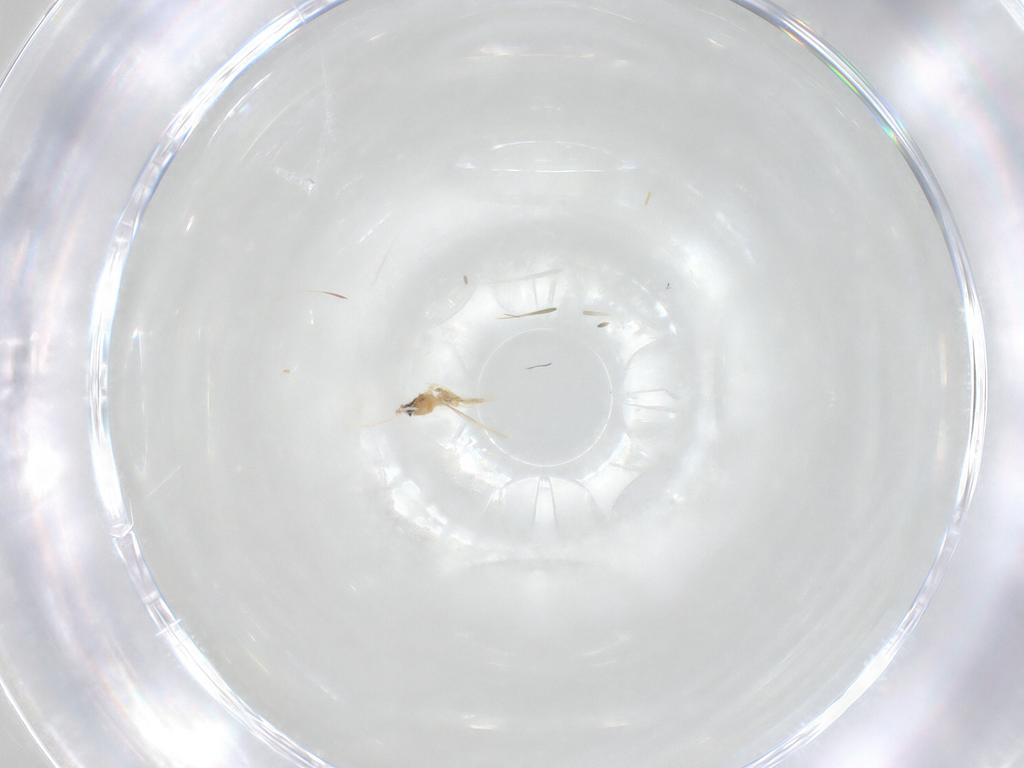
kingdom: Animalia
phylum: Arthropoda
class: Insecta
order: Hemiptera
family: Diaspididae
